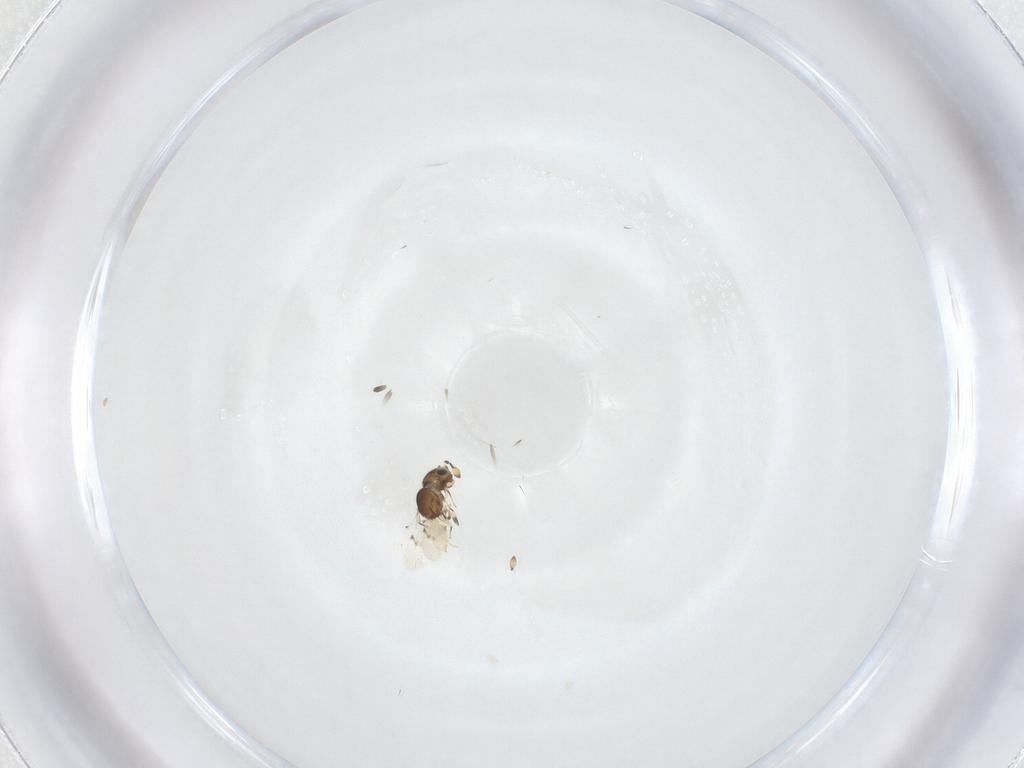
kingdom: Animalia
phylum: Arthropoda
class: Insecta
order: Hymenoptera
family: Scelionidae
